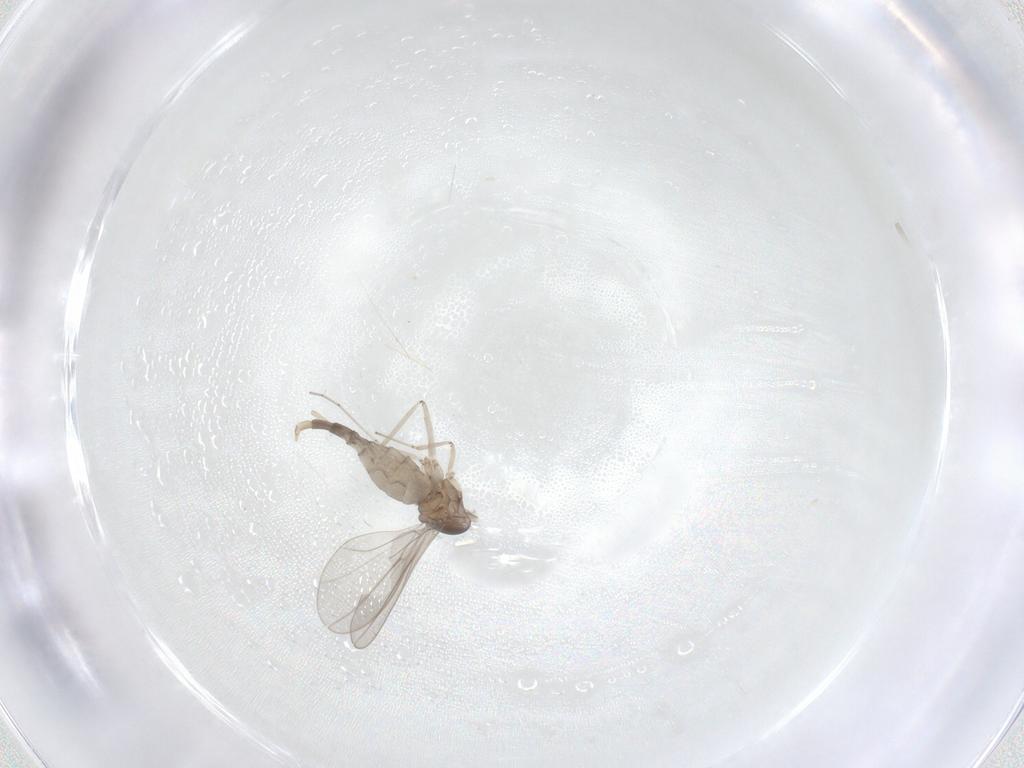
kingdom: Animalia
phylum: Arthropoda
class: Insecta
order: Diptera
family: Cecidomyiidae
